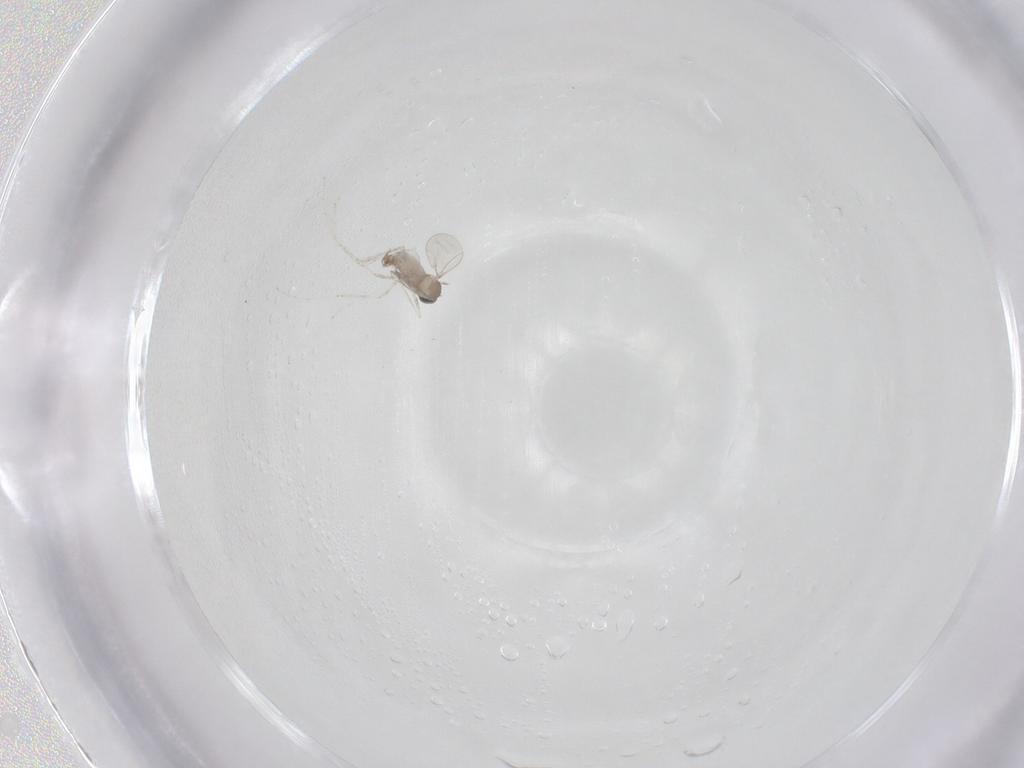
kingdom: Animalia
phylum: Arthropoda
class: Insecta
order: Diptera
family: Cecidomyiidae
